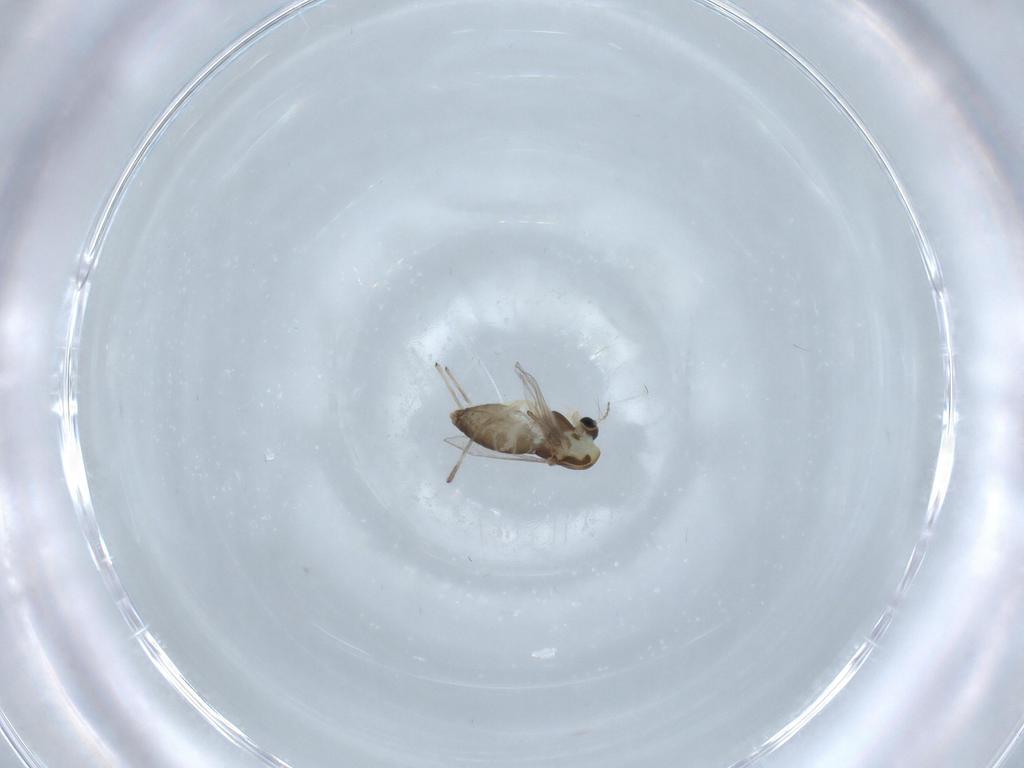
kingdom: Animalia
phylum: Arthropoda
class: Insecta
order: Diptera
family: Chironomidae
